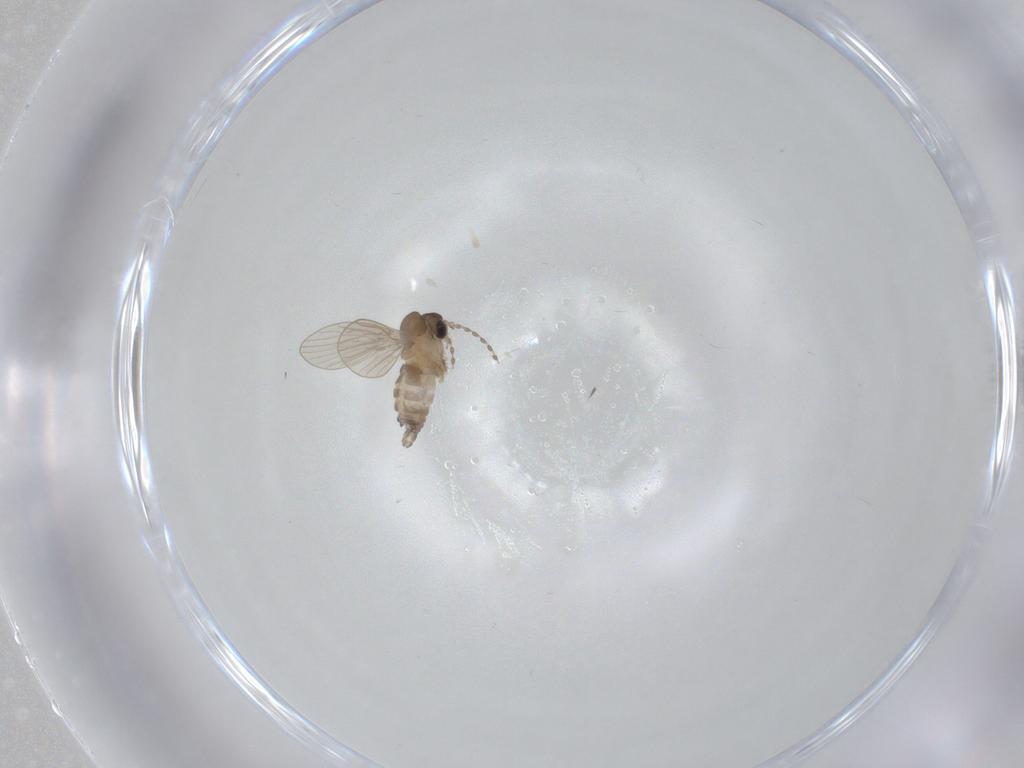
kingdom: Animalia
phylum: Arthropoda
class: Insecta
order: Diptera
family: Psychodidae
